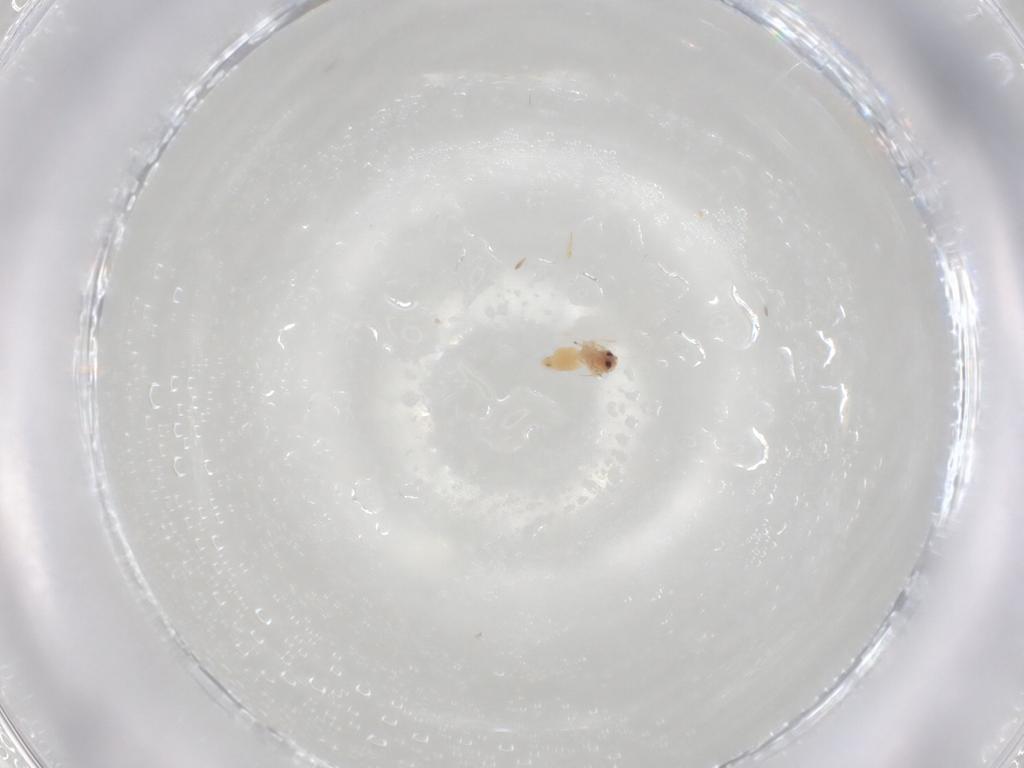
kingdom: Animalia
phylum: Arthropoda
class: Insecta
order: Hemiptera
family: Aleyrodidae
